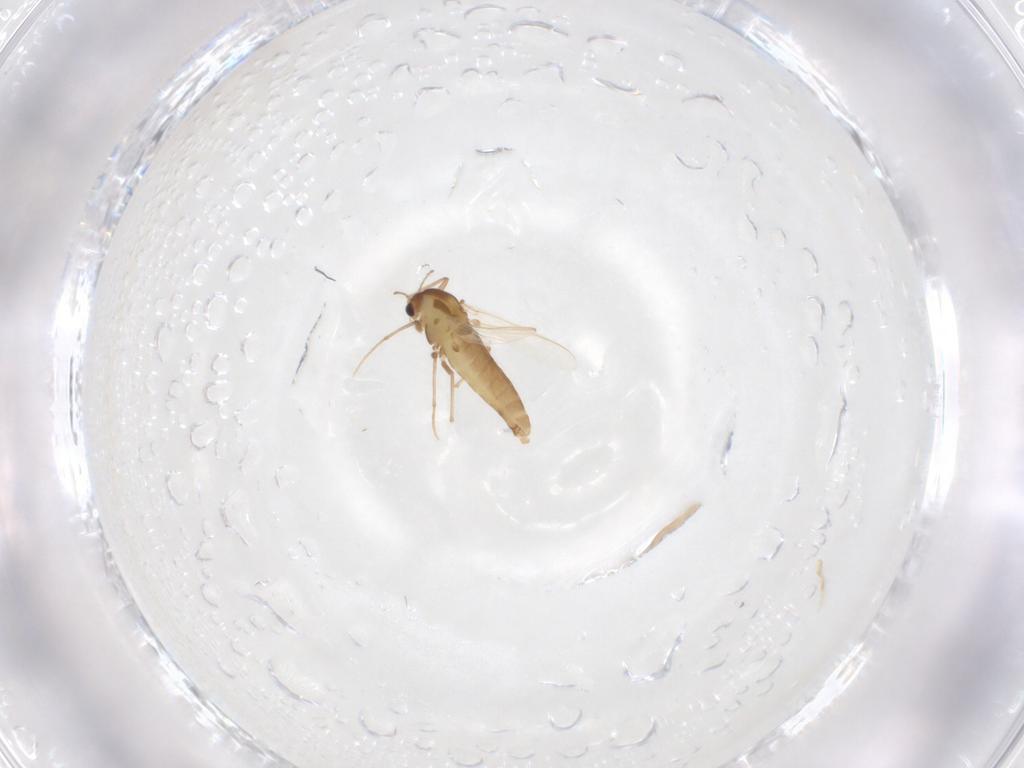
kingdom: Animalia
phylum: Arthropoda
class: Insecta
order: Diptera
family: Chironomidae
